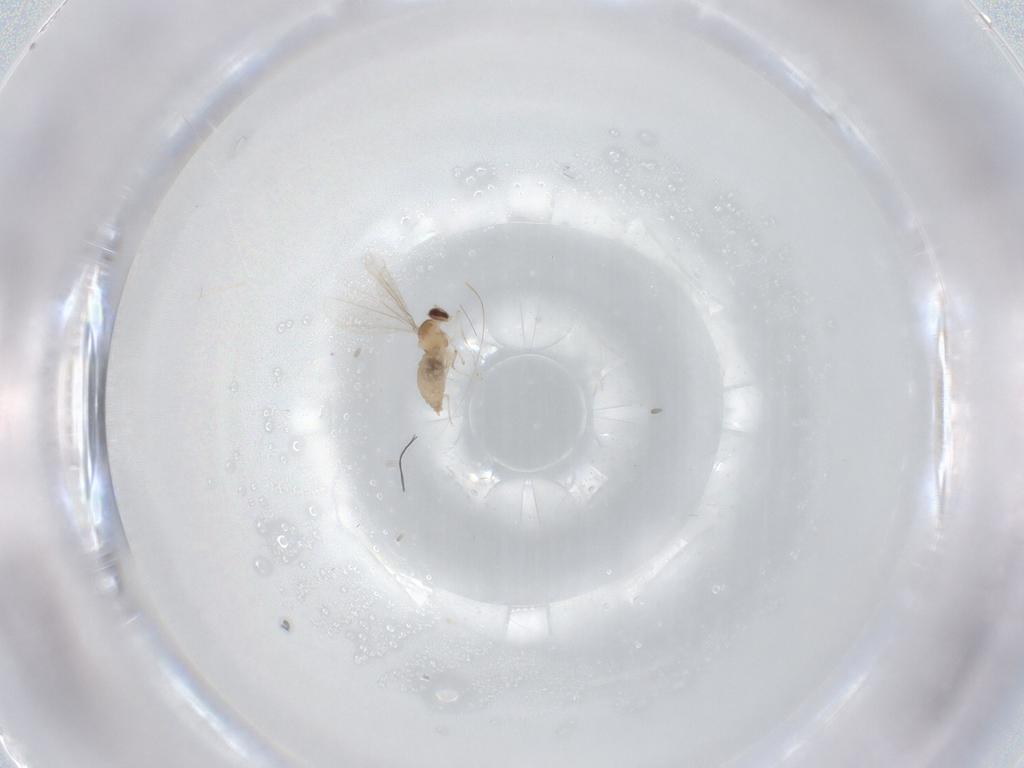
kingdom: Animalia
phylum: Arthropoda
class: Insecta
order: Diptera
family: Cecidomyiidae
